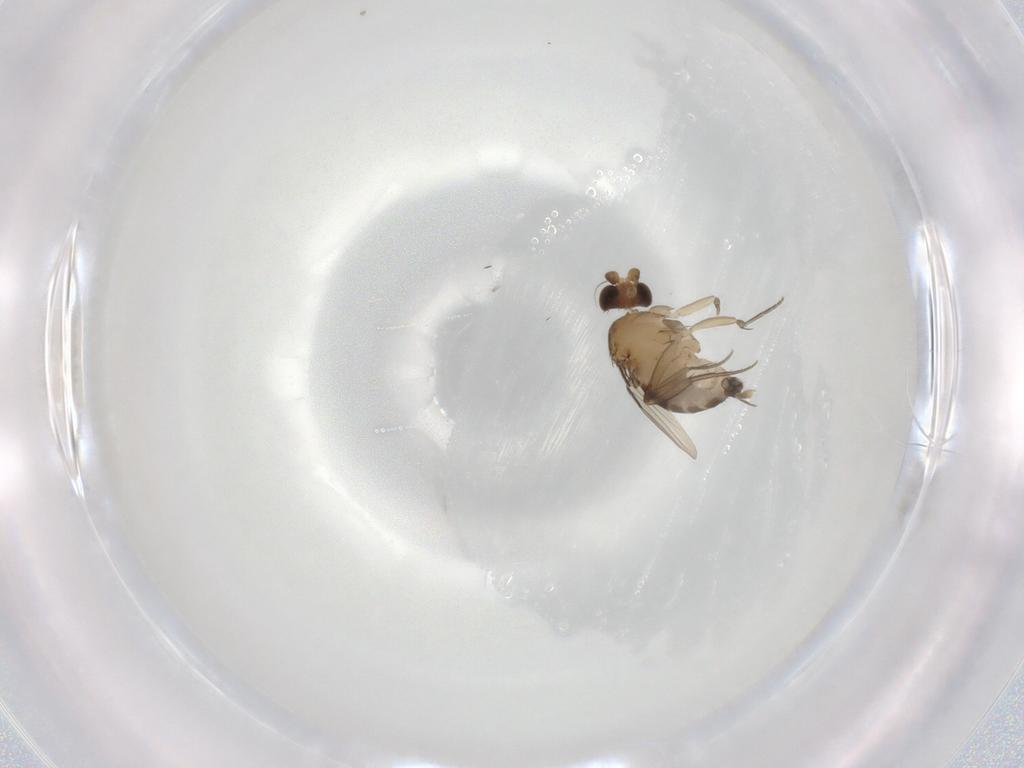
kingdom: Animalia
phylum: Arthropoda
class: Insecta
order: Diptera
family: Phoridae
